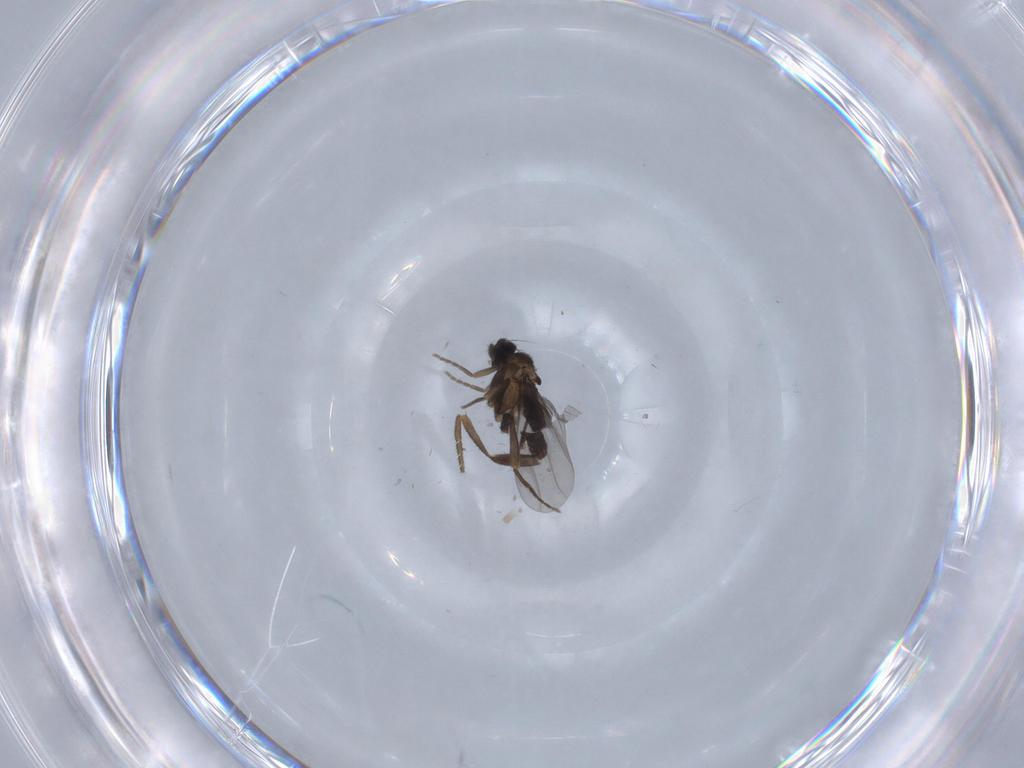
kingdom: Animalia
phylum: Arthropoda
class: Insecta
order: Diptera
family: Phoridae
